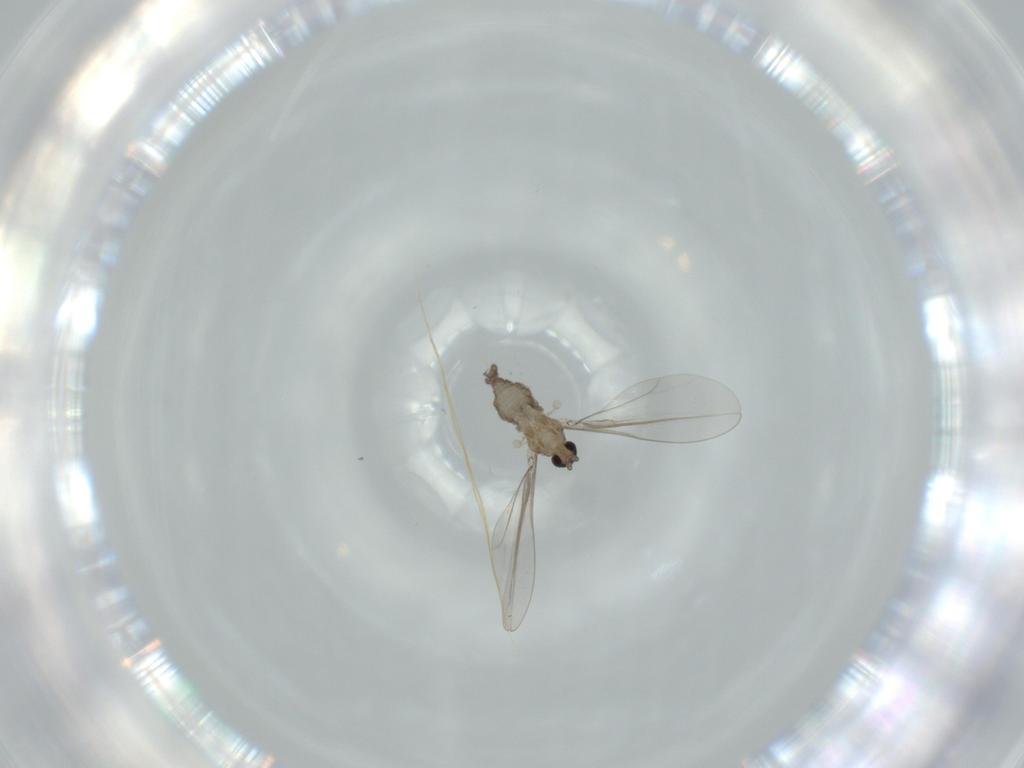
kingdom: Animalia
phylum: Arthropoda
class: Insecta
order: Diptera
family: Cecidomyiidae
